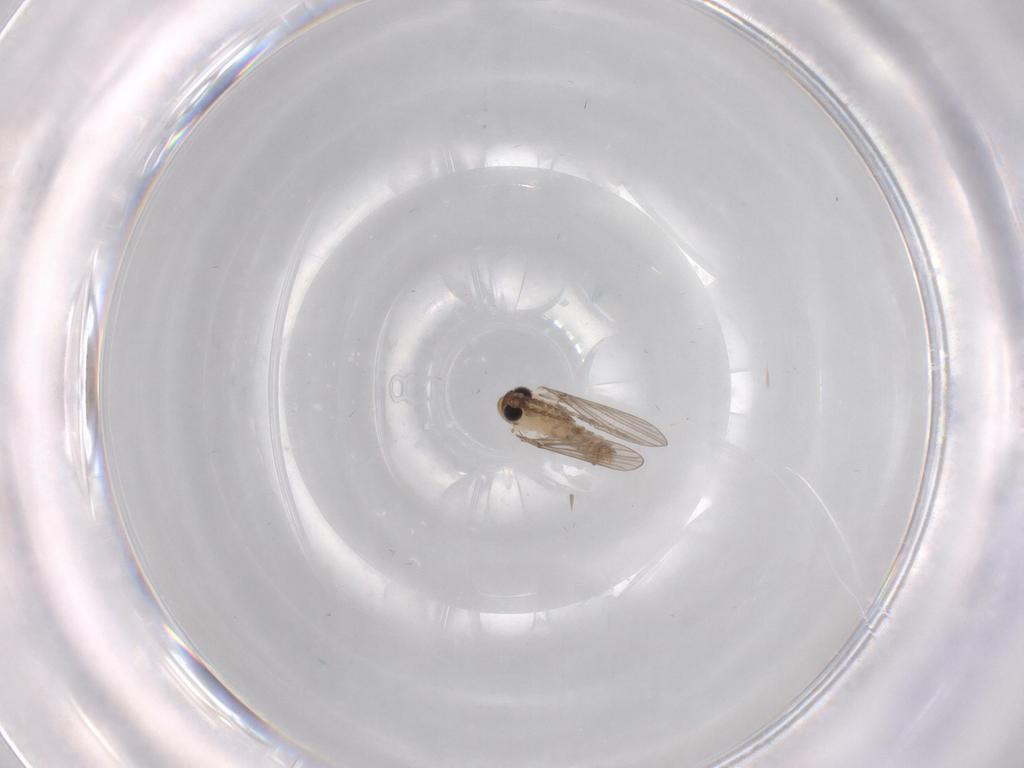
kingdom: Animalia
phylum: Arthropoda
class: Insecta
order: Diptera
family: Psychodidae
